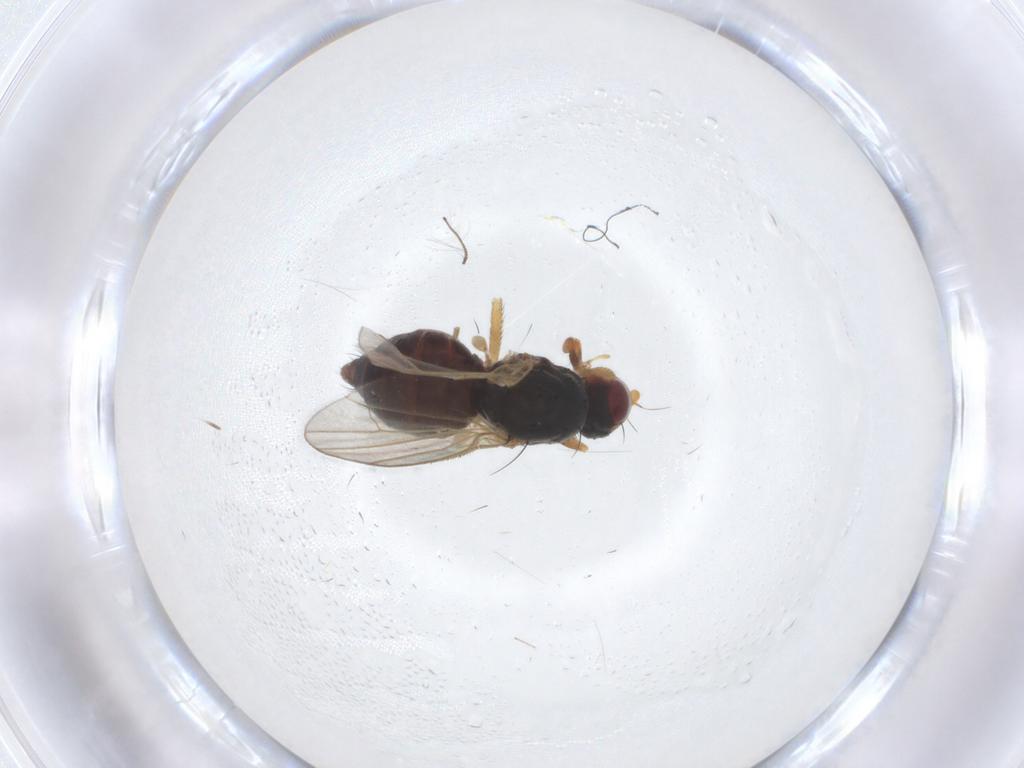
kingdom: Animalia
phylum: Arthropoda
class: Insecta
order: Diptera
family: Heleomyzidae
